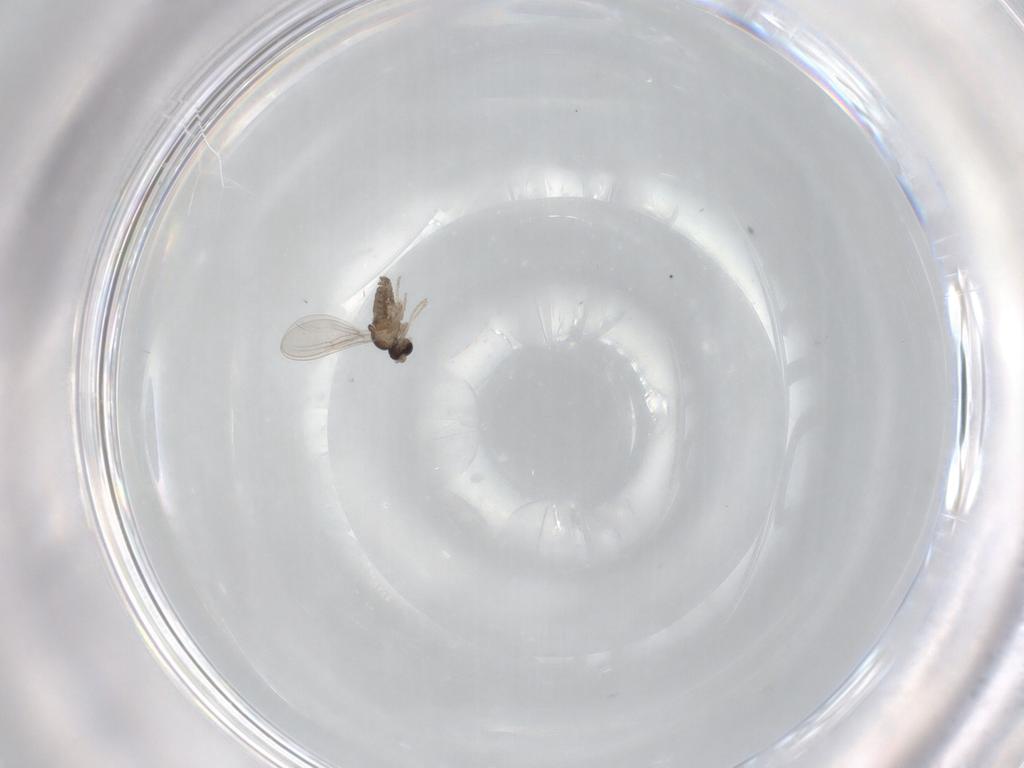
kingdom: Animalia
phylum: Arthropoda
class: Insecta
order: Diptera
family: Cecidomyiidae
